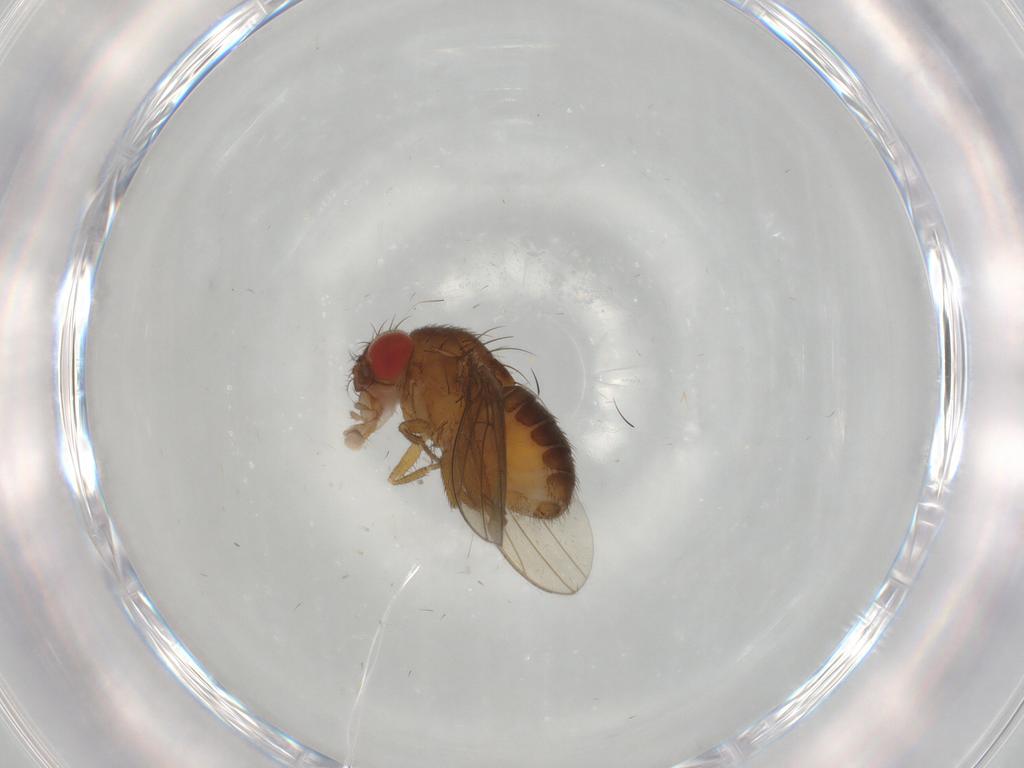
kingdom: Animalia
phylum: Arthropoda
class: Insecta
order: Diptera
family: Drosophilidae
